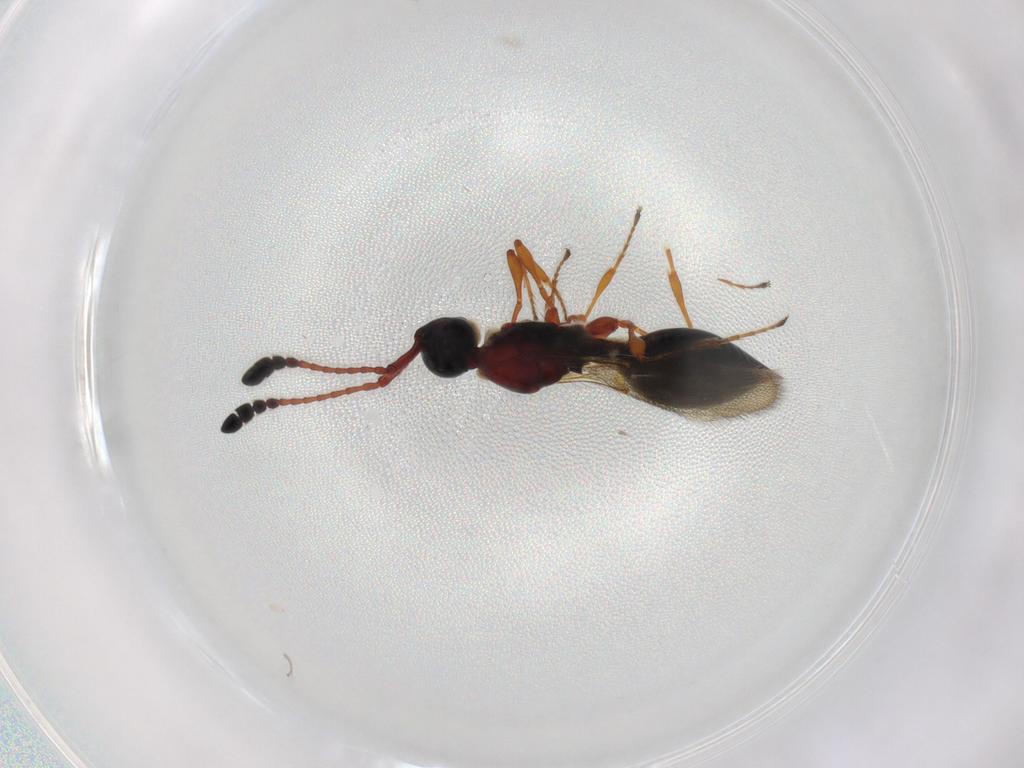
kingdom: Animalia
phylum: Arthropoda
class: Insecta
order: Hymenoptera
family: Diapriidae
